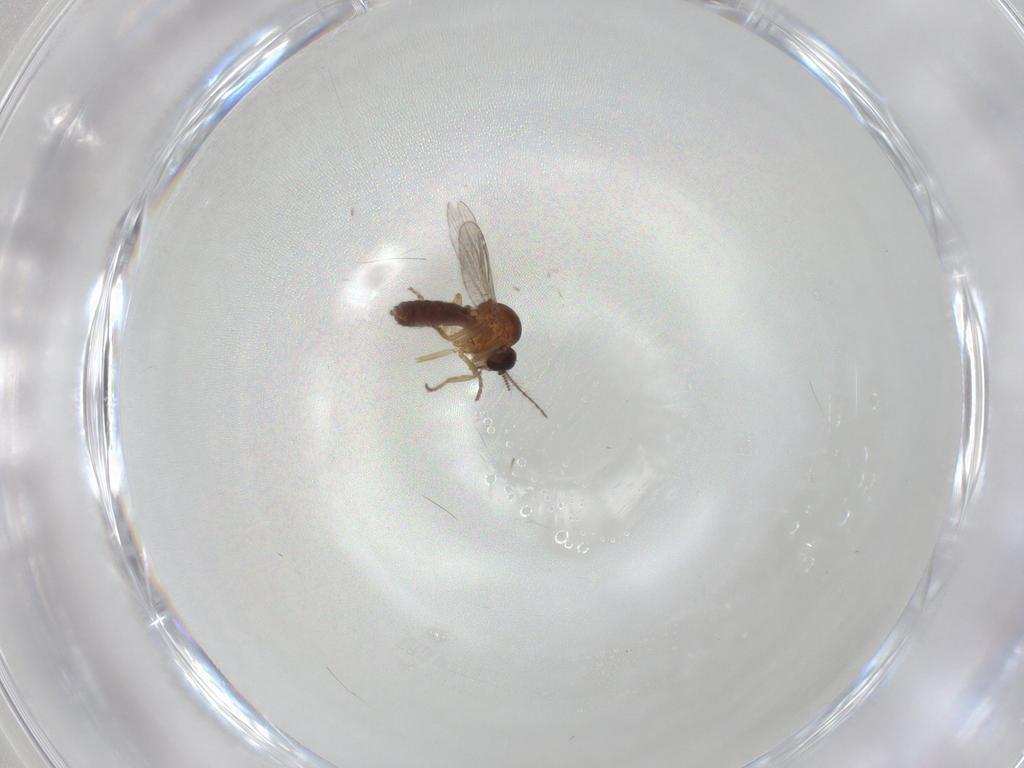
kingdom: Animalia
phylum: Arthropoda
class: Insecta
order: Diptera
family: Ceratopogonidae
